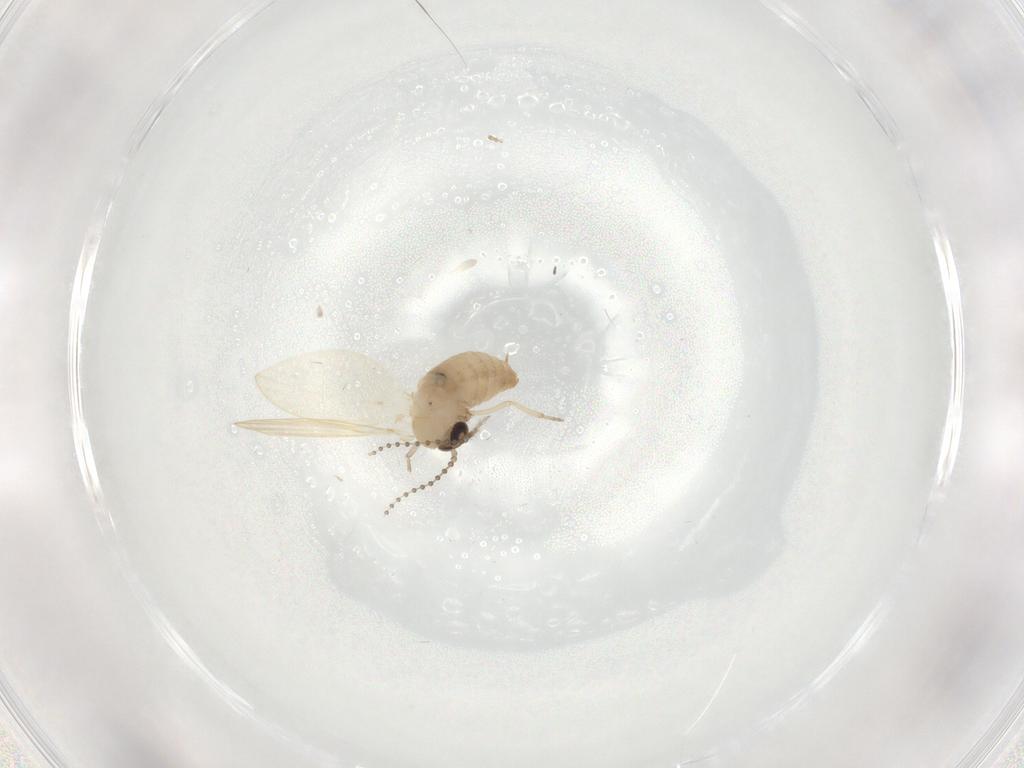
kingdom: Animalia
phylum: Arthropoda
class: Insecta
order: Diptera
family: Psychodidae
